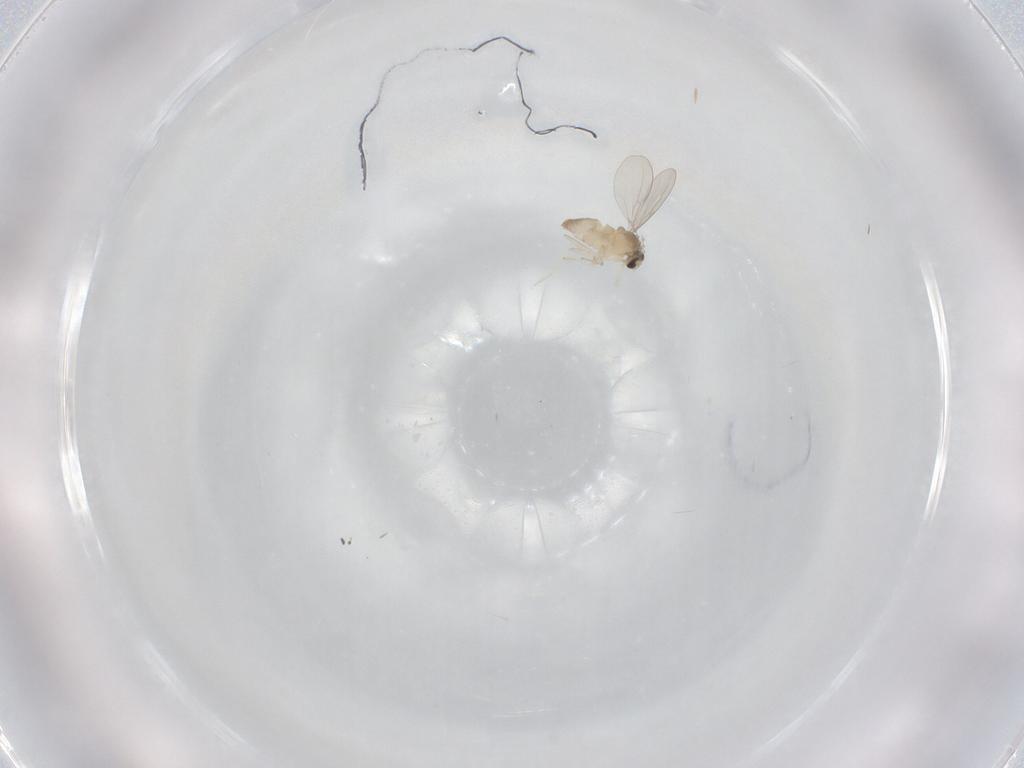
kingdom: Animalia
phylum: Arthropoda
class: Insecta
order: Diptera
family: Cecidomyiidae
